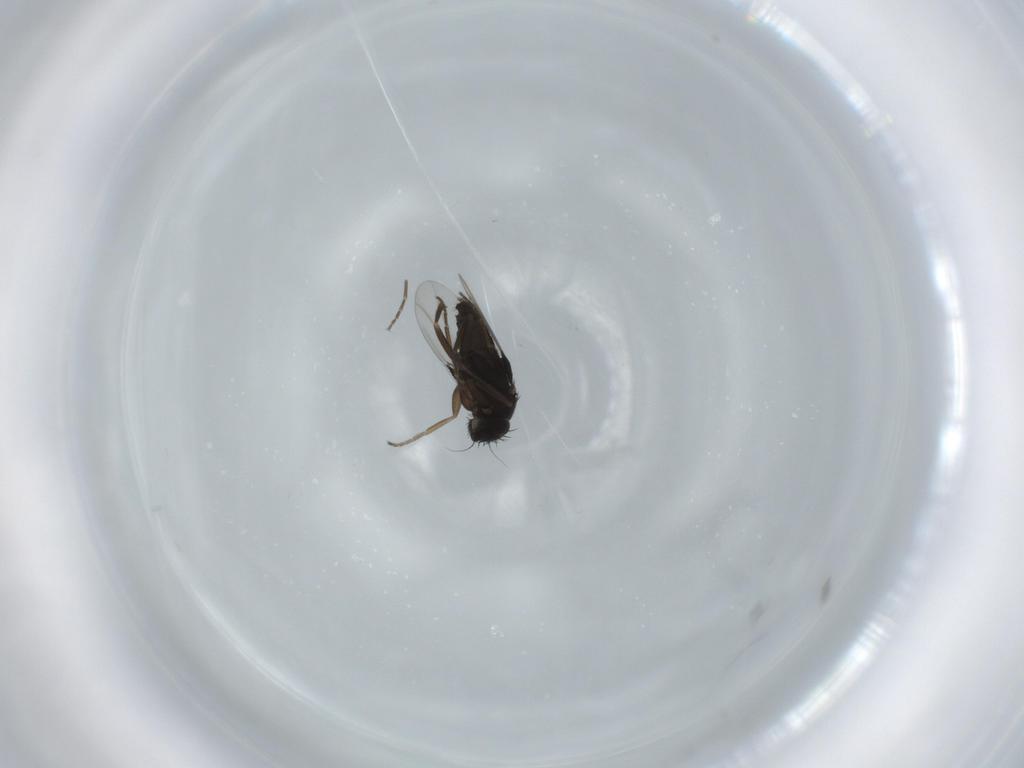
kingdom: Animalia
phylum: Arthropoda
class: Insecta
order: Diptera
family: Phoridae
